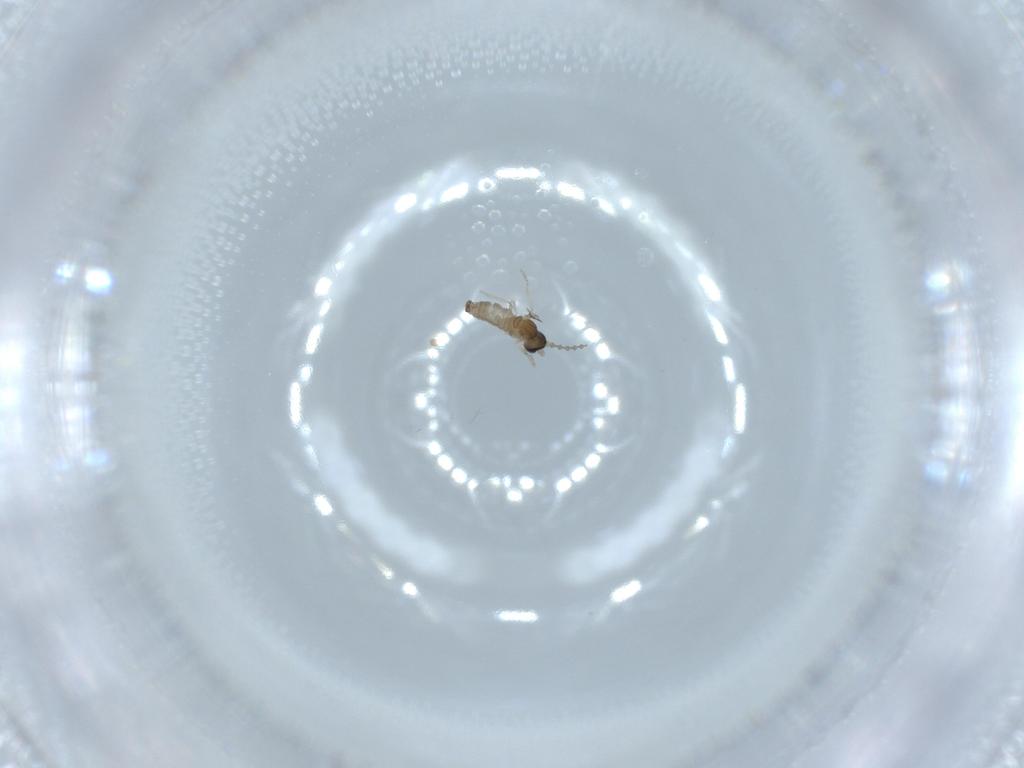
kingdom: Animalia
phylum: Arthropoda
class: Insecta
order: Diptera
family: Cecidomyiidae
